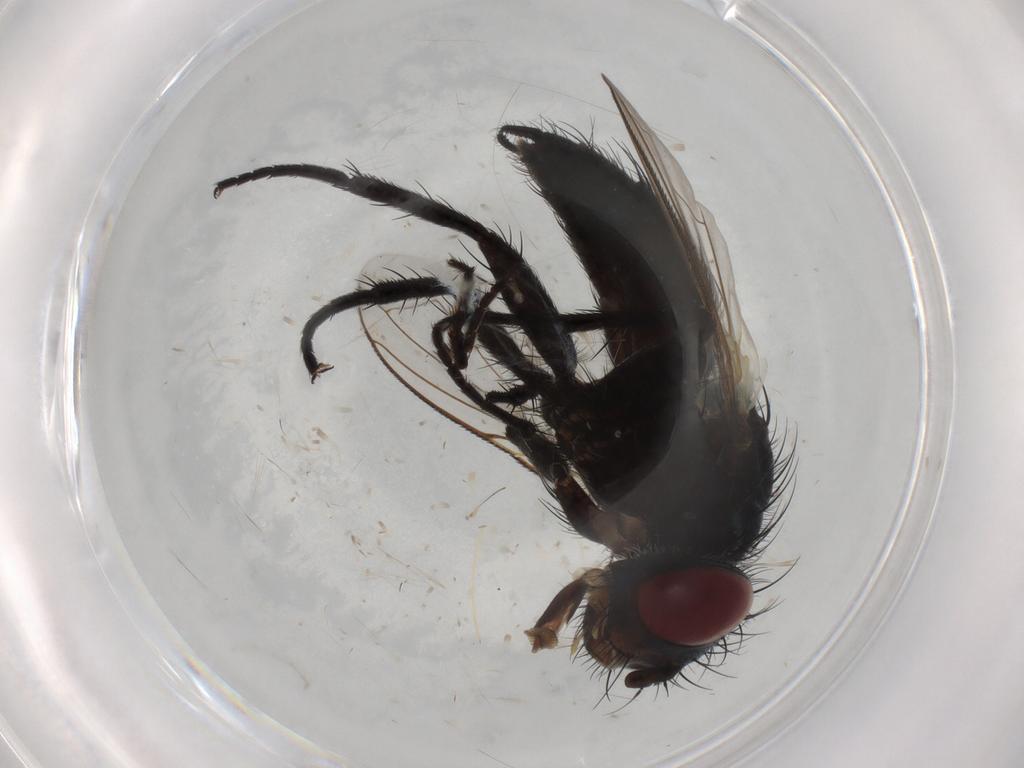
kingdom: Animalia
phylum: Arthropoda
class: Insecta
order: Diptera
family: Tachinidae
